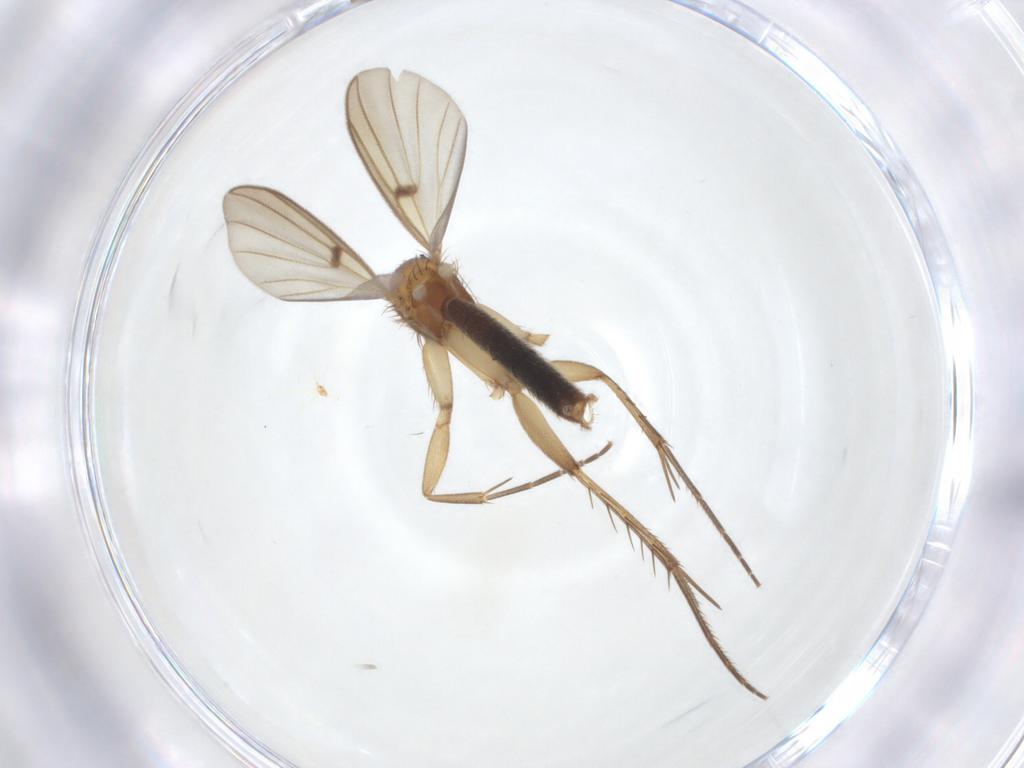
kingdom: Animalia
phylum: Arthropoda
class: Insecta
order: Diptera
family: Mycetophilidae
